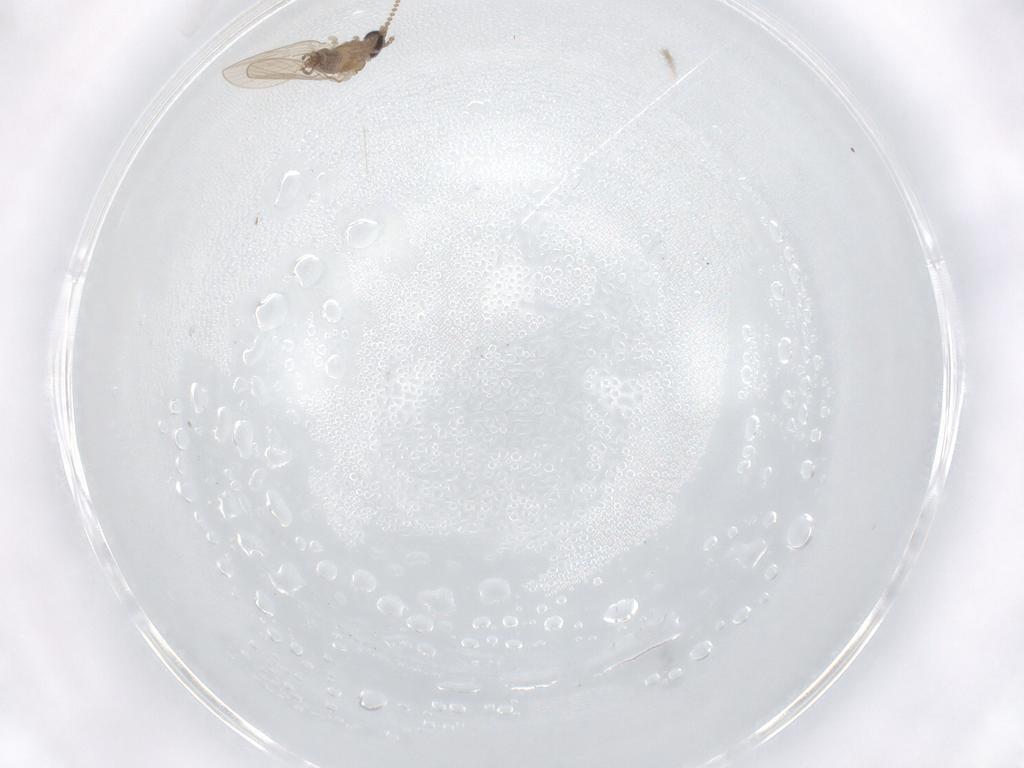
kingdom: Animalia
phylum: Arthropoda
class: Insecta
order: Diptera
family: Psychodidae
